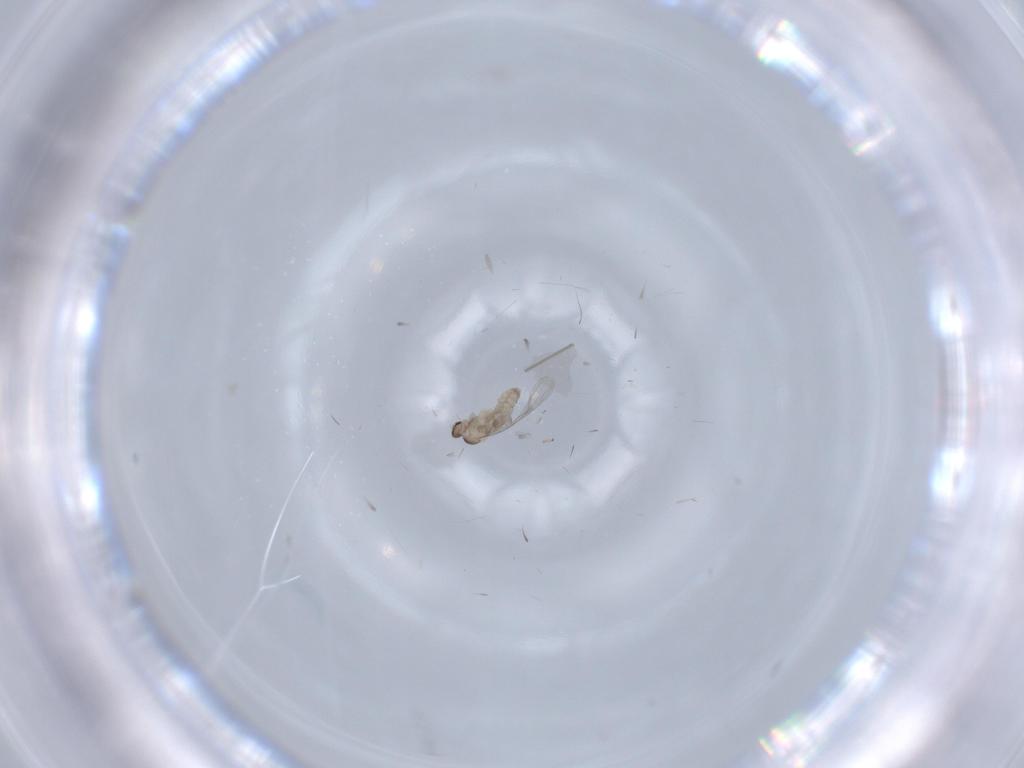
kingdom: Animalia
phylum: Arthropoda
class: Insecta
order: Diptera
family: Cecidomyiidae
